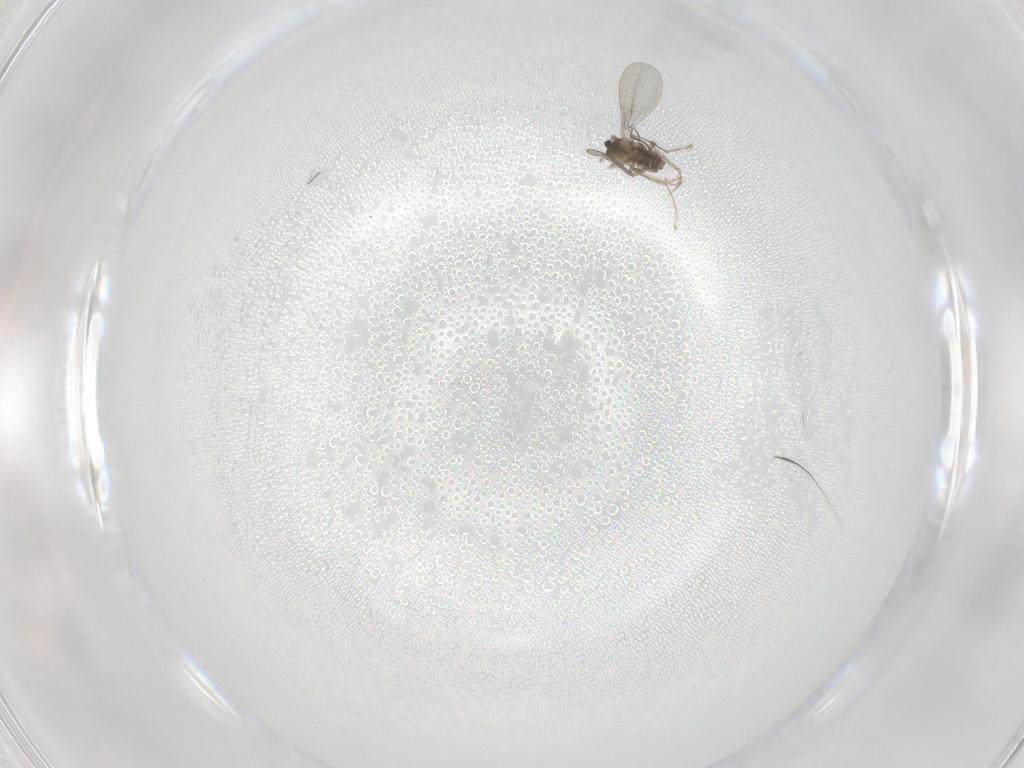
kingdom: Animalia
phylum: Arthropoda
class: Insecta
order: Diptera
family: Cecidomyiidae
